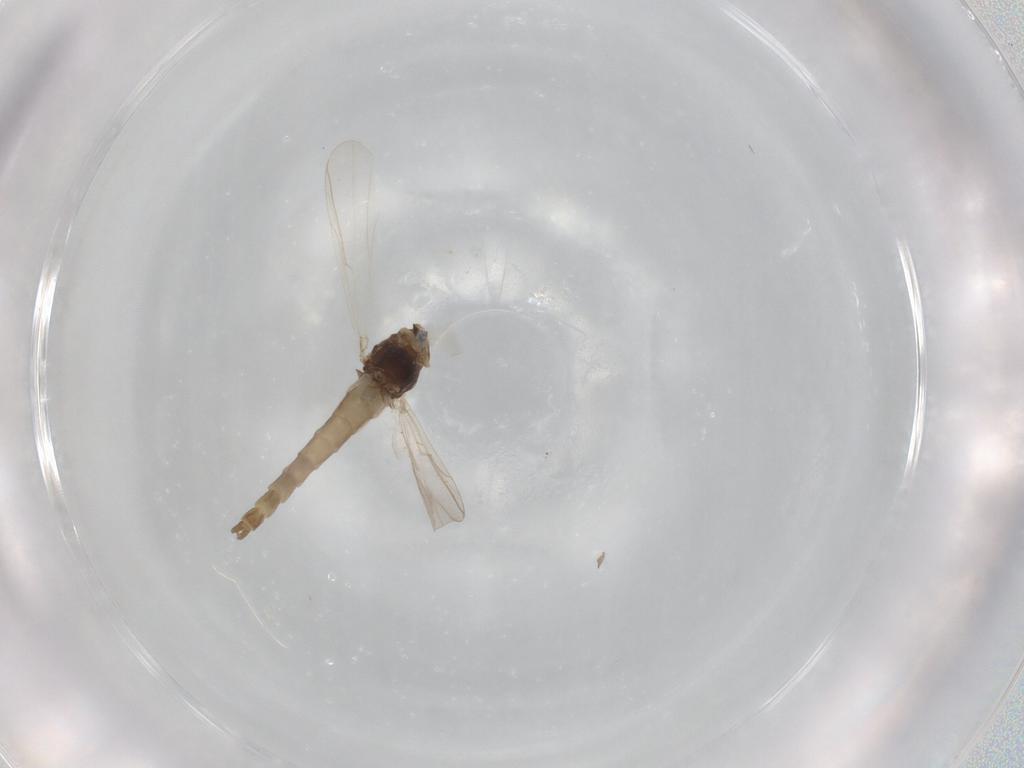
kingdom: Animalia
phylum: Arthropoda
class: Insecta
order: Diptera
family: Chironomidae
